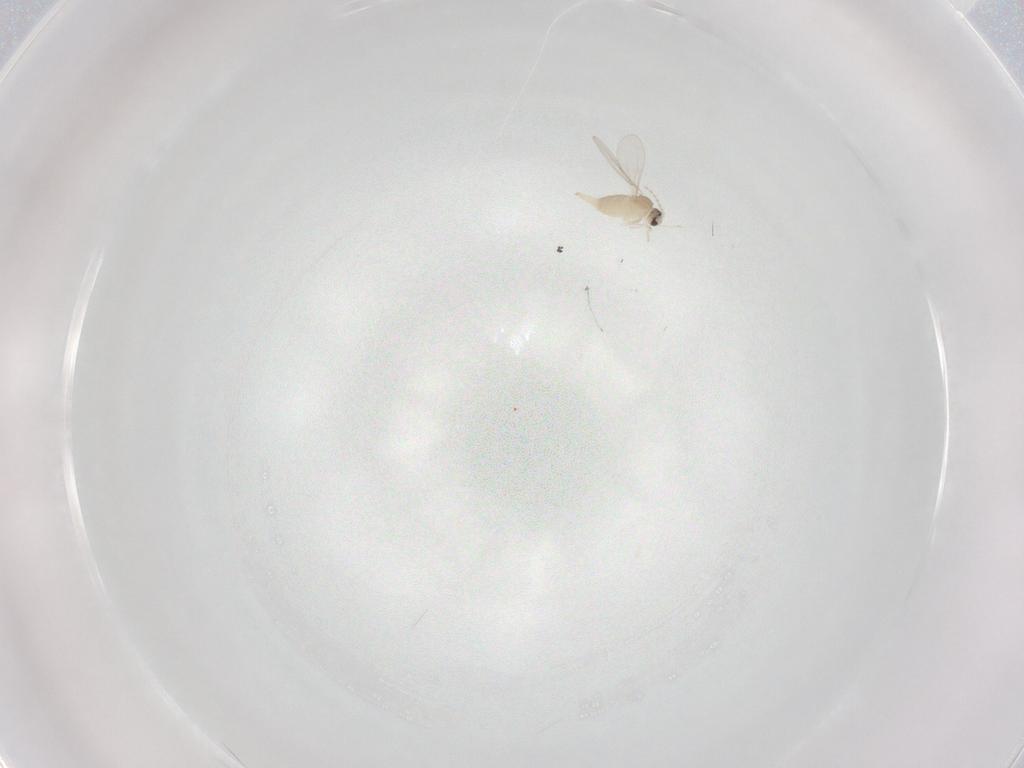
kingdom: Animalia
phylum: Arthropoda
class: Insecta
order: Diptera
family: Cecidomyiidae
